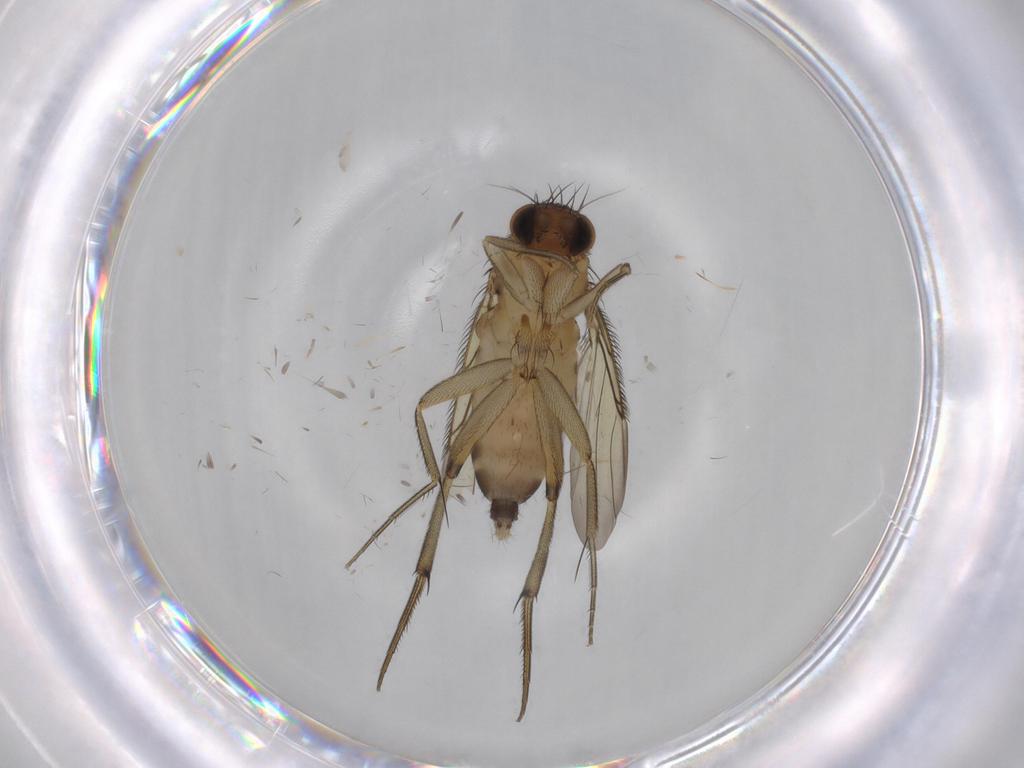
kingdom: Animalia
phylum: Arthropoda
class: Insecta
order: Diptera
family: Phoridae
